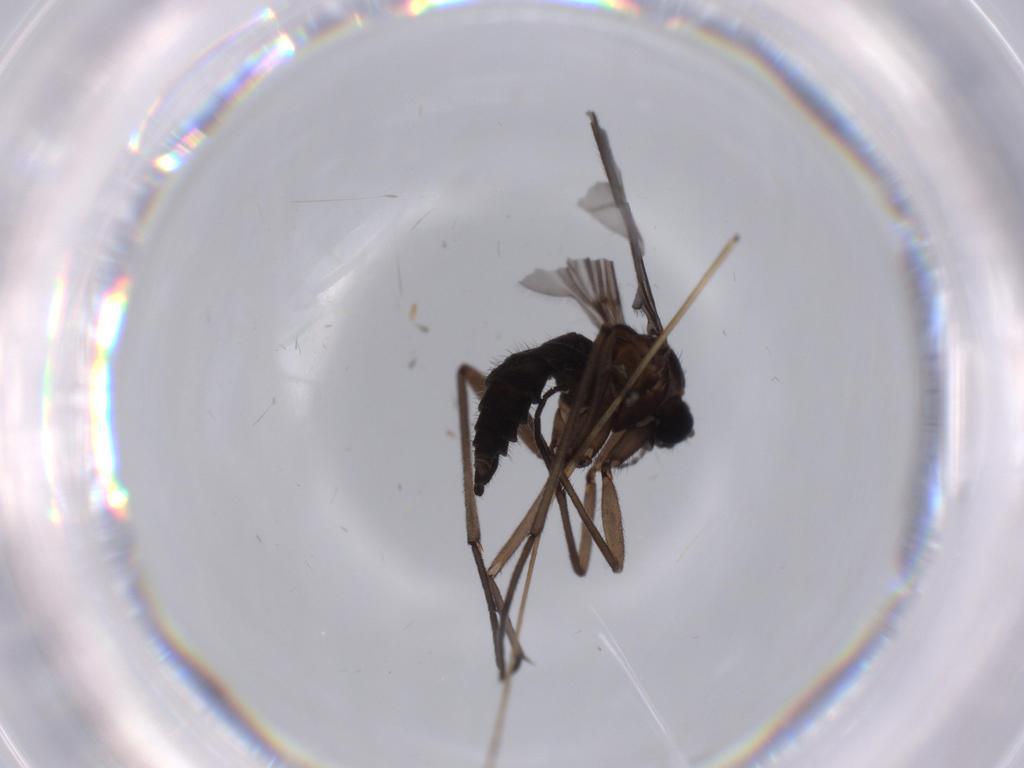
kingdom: Animalia
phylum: Arthropoda
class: Insecta
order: Diptera
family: Sciaridae
